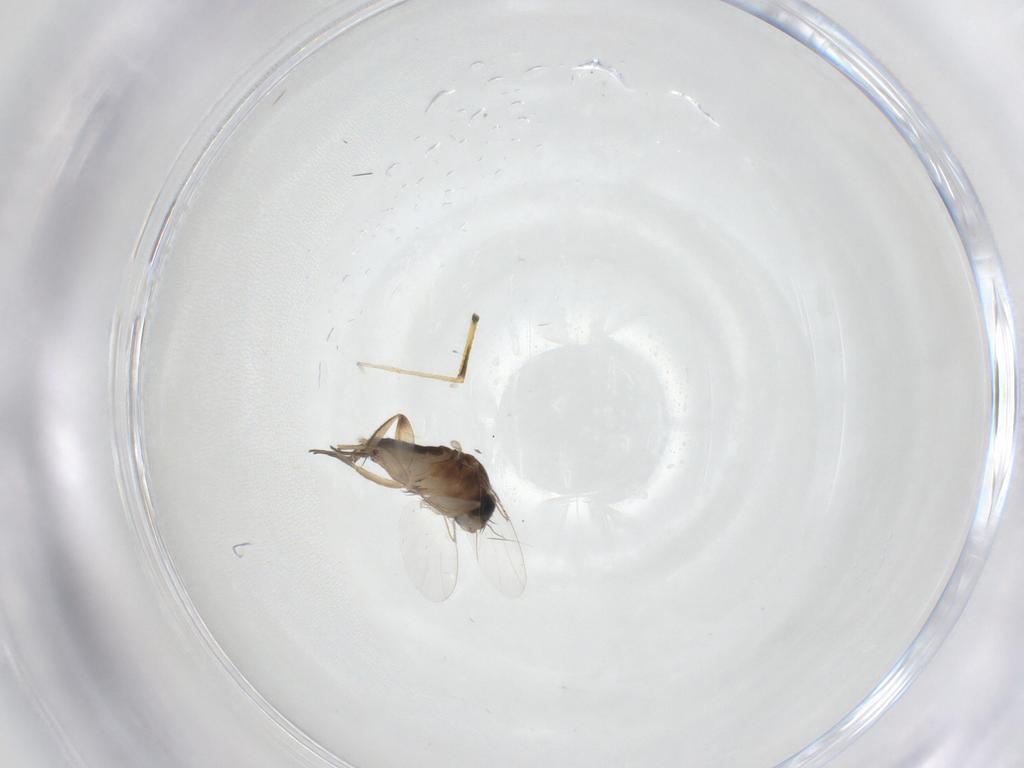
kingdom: Animalia
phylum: Arthropoda
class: Insecta
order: Diptera
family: Phoridae
